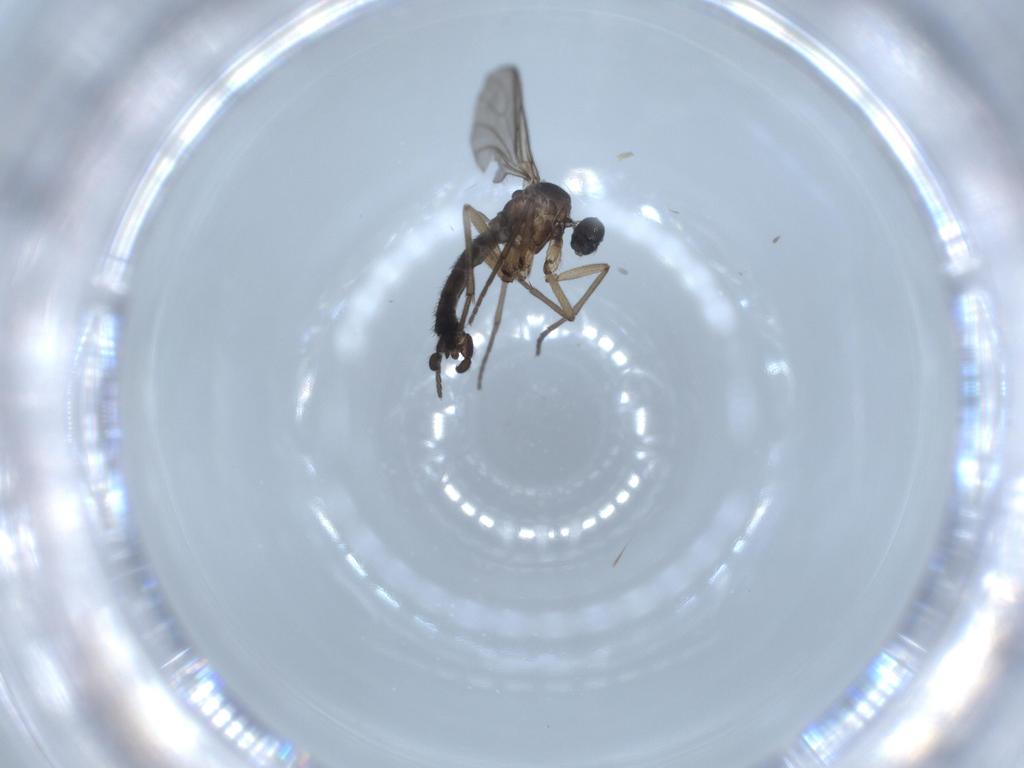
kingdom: Animalia
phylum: Arthropoda
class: Insecta
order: Diptera
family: Sciaridae
